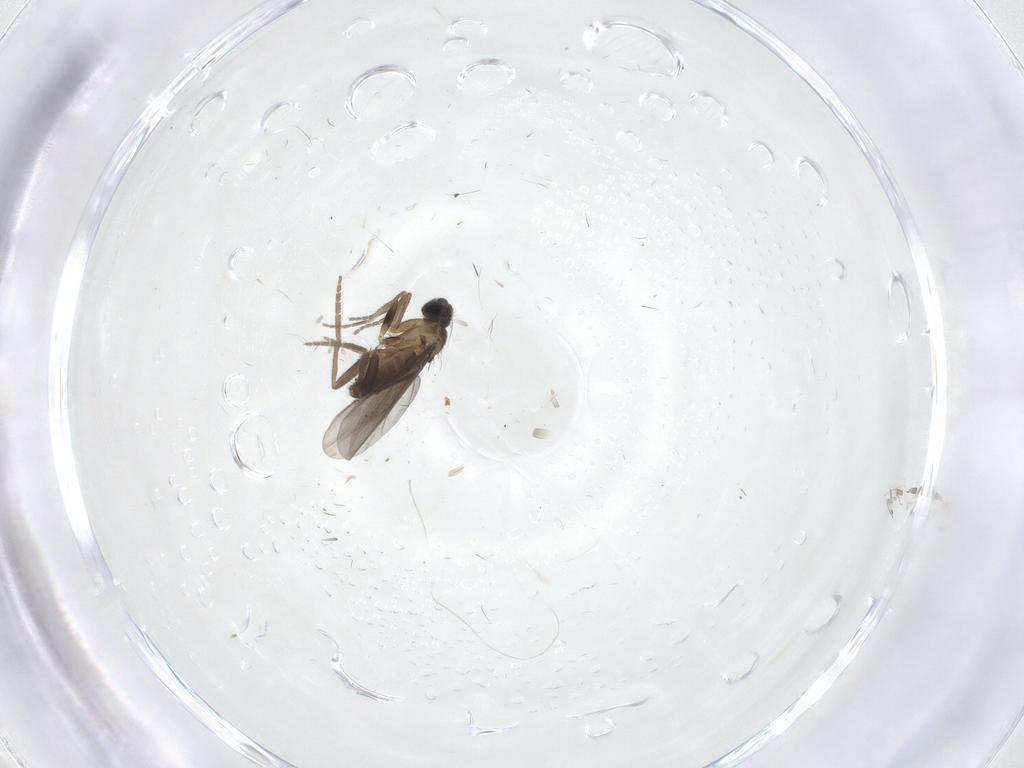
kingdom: Animalia
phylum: Arthropoda
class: Insecta
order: Diptera
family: Phoridae
